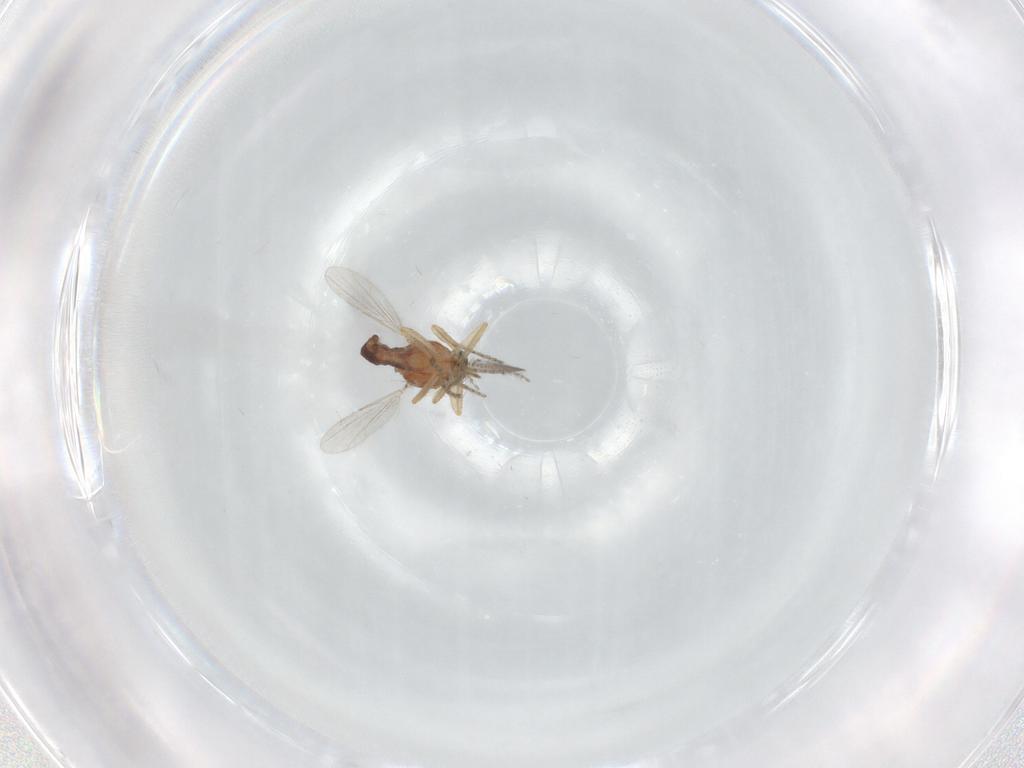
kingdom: Animalia
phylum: Arthropoda
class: Insecta
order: Diptera
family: Ceratopogonidae
